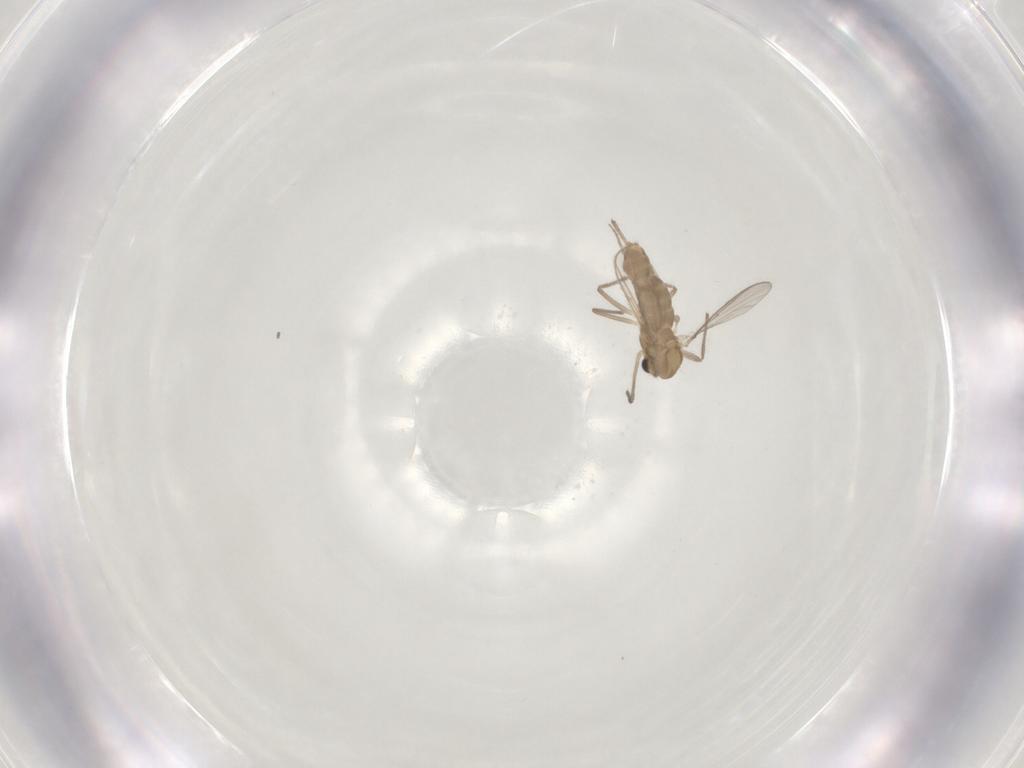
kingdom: Animalia
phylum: Arthropoda
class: Insecta
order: Diptera
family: Chironomidae
